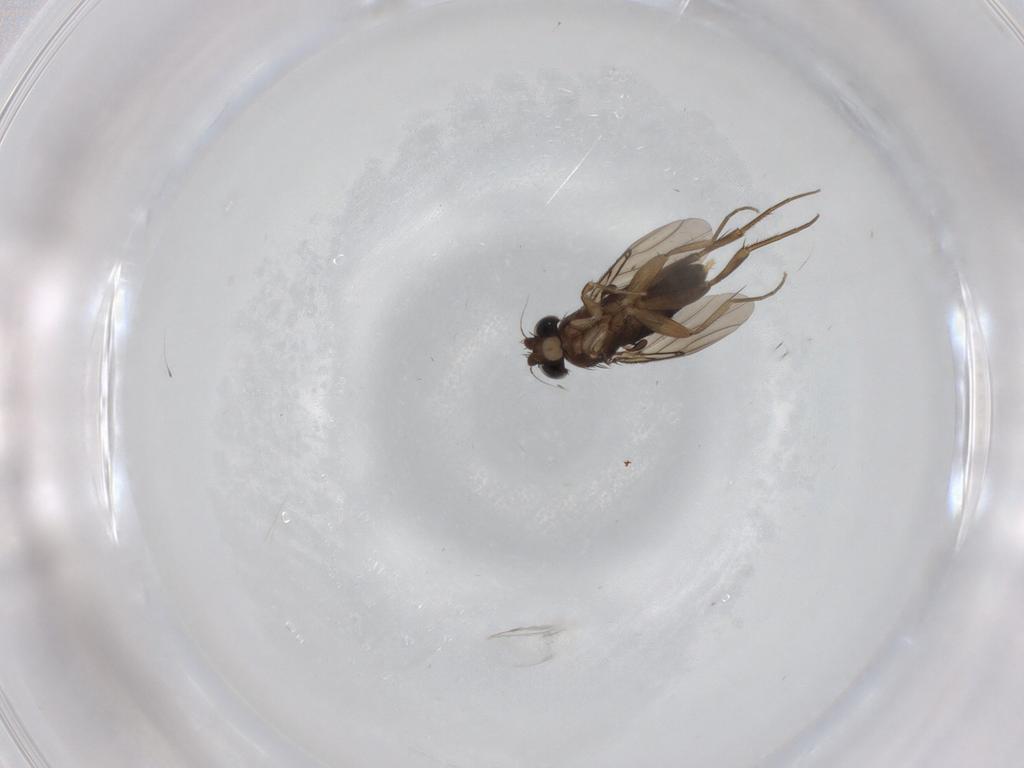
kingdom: Animalia
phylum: Arthropoda
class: Insecta
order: Diptera
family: Phoridae
